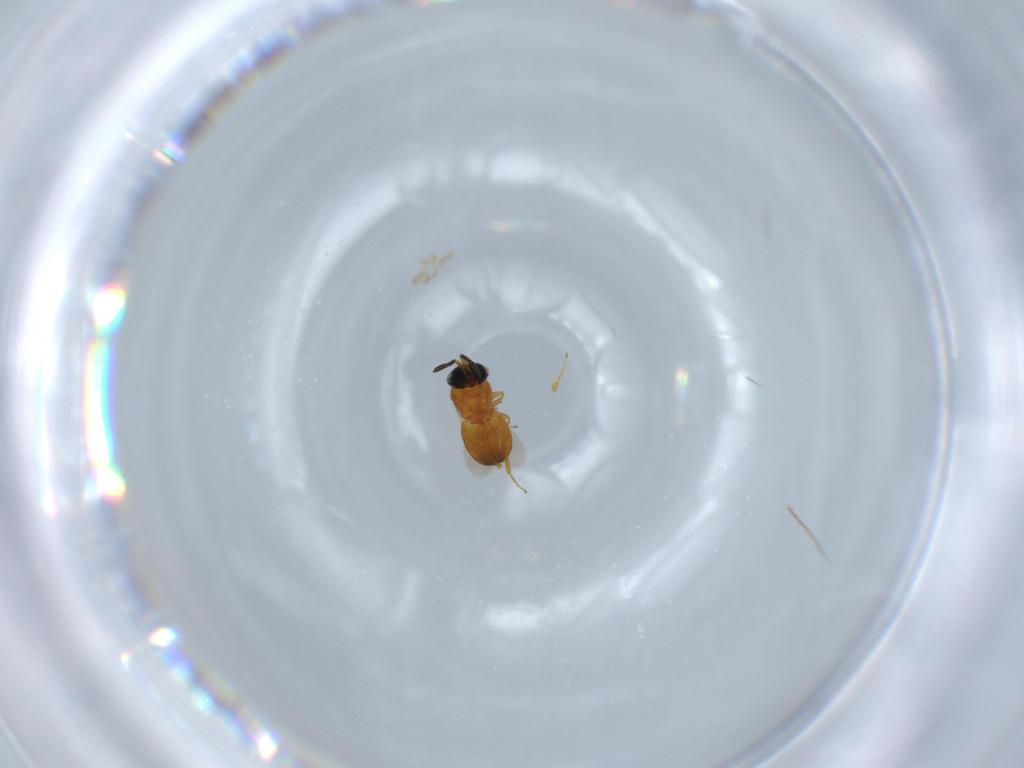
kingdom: Animalia
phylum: Arthropoda
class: Insecta
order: Hymenoptera
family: Scelionidae
